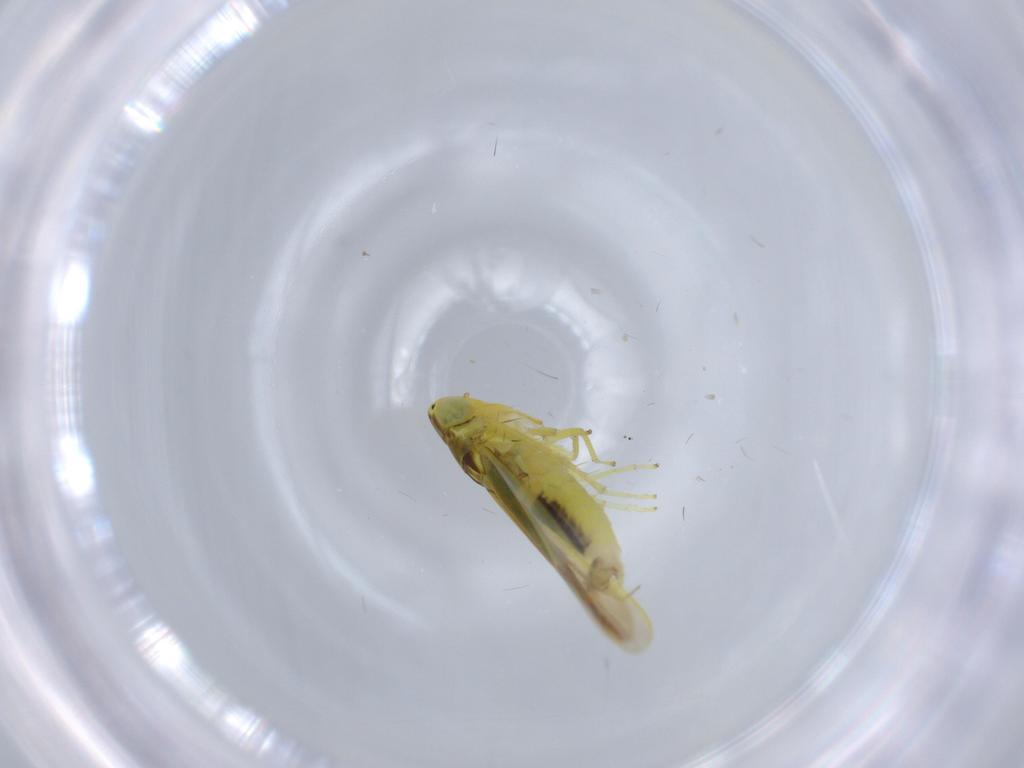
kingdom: Animalia
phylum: Arthropoda
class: Insecta
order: Hemiptera
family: Cicadellidae
